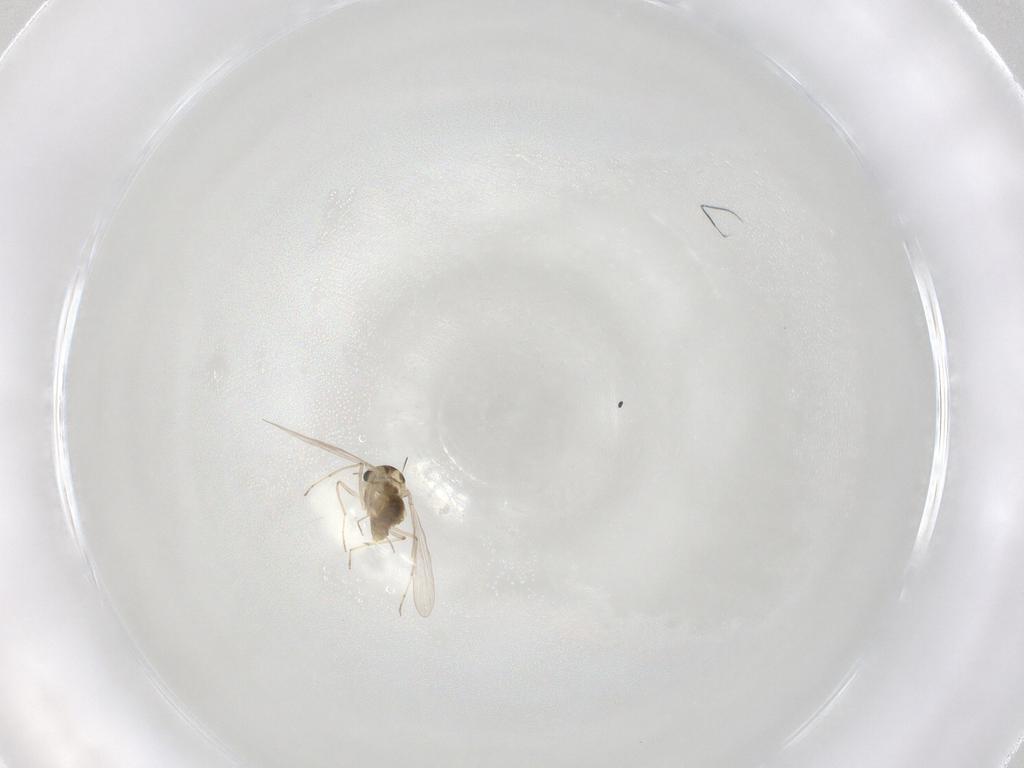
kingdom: Animalia
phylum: Arthropoda
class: Insecta
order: Diptera
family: Chironomidae
